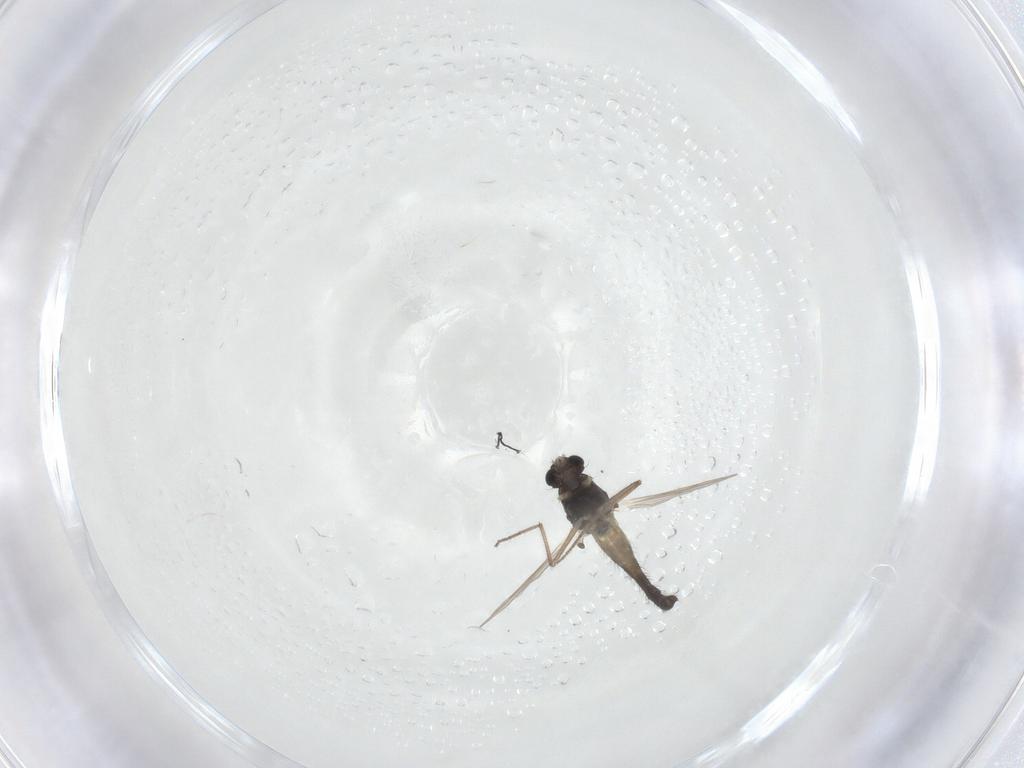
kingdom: Animalia
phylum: Arthropoda
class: Insecta
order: Diptera
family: Chironomidae
